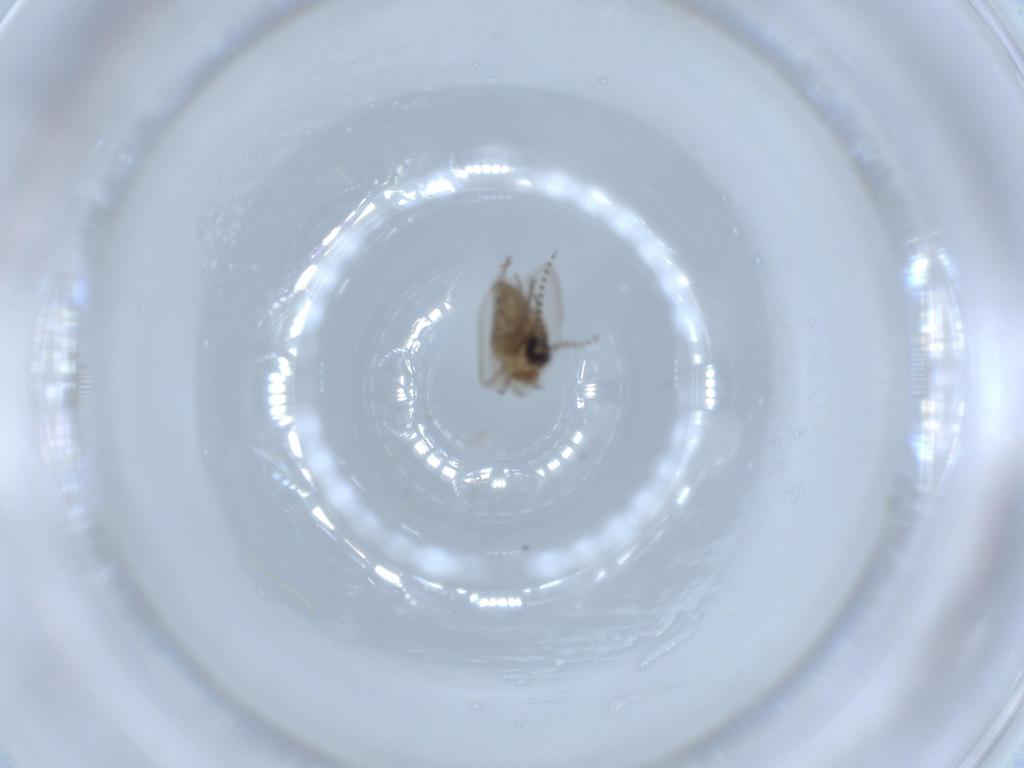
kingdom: Animalia
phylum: Arthropoda
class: Insecta
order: Diptera
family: Psychodidae
